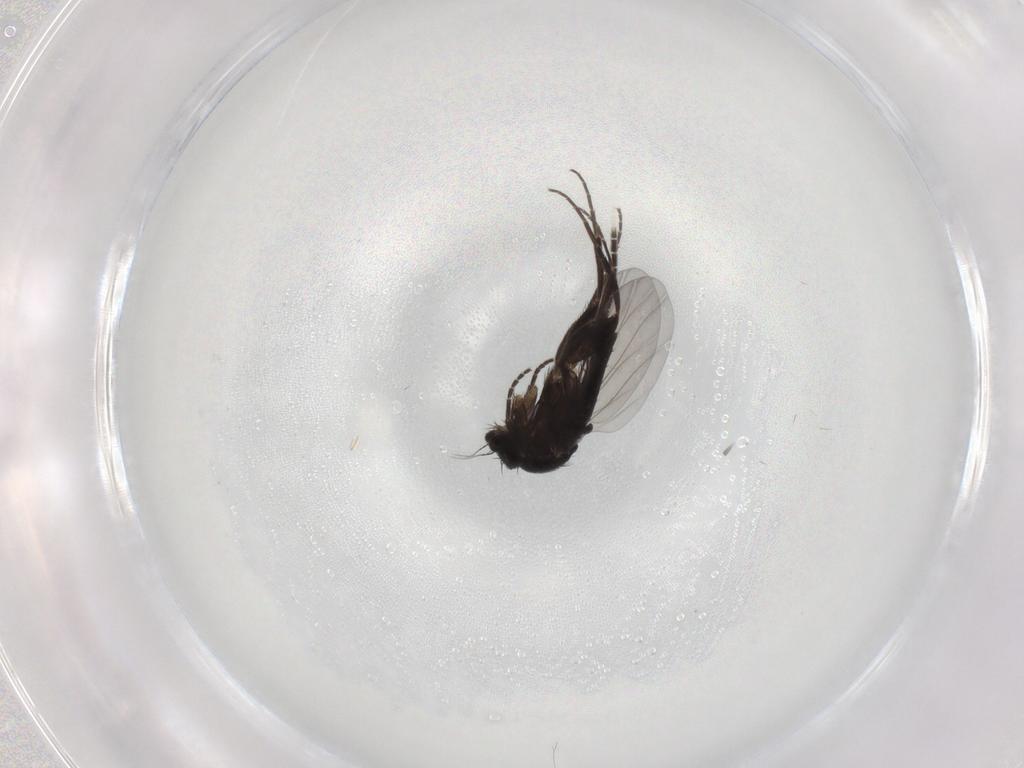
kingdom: Animalia
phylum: Arthropoda
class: Insecta
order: Diptera
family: Phoridae
